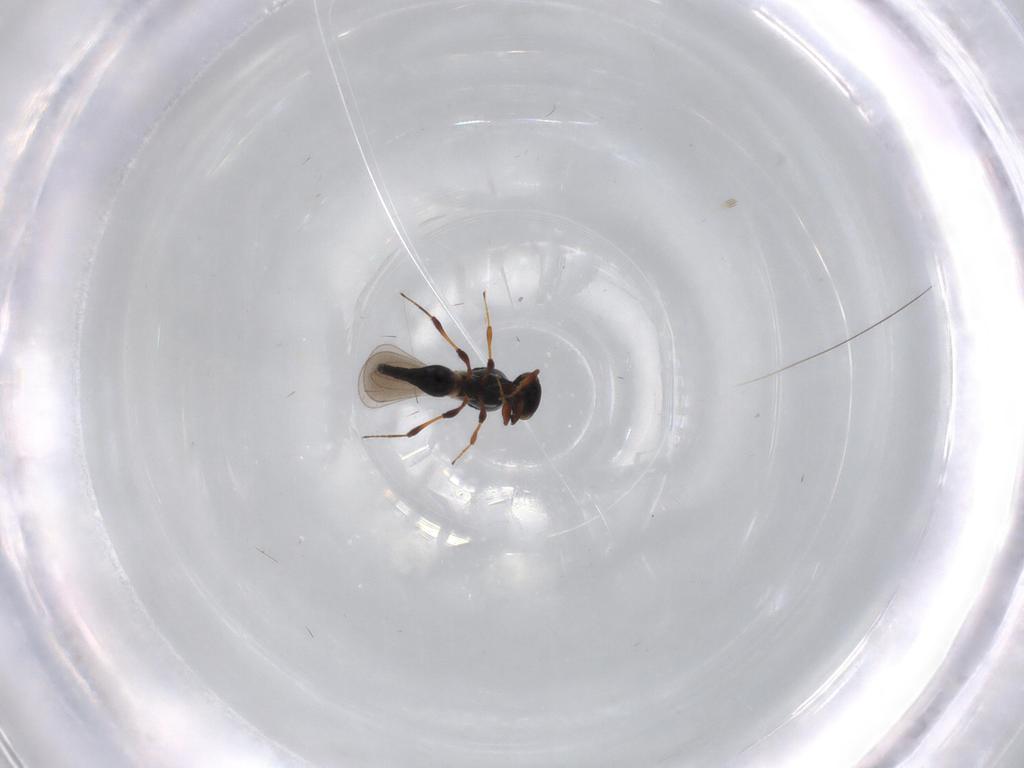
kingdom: Animalia
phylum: Arthropoda
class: Insecta
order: Hymenoptera
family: Platygastridae
